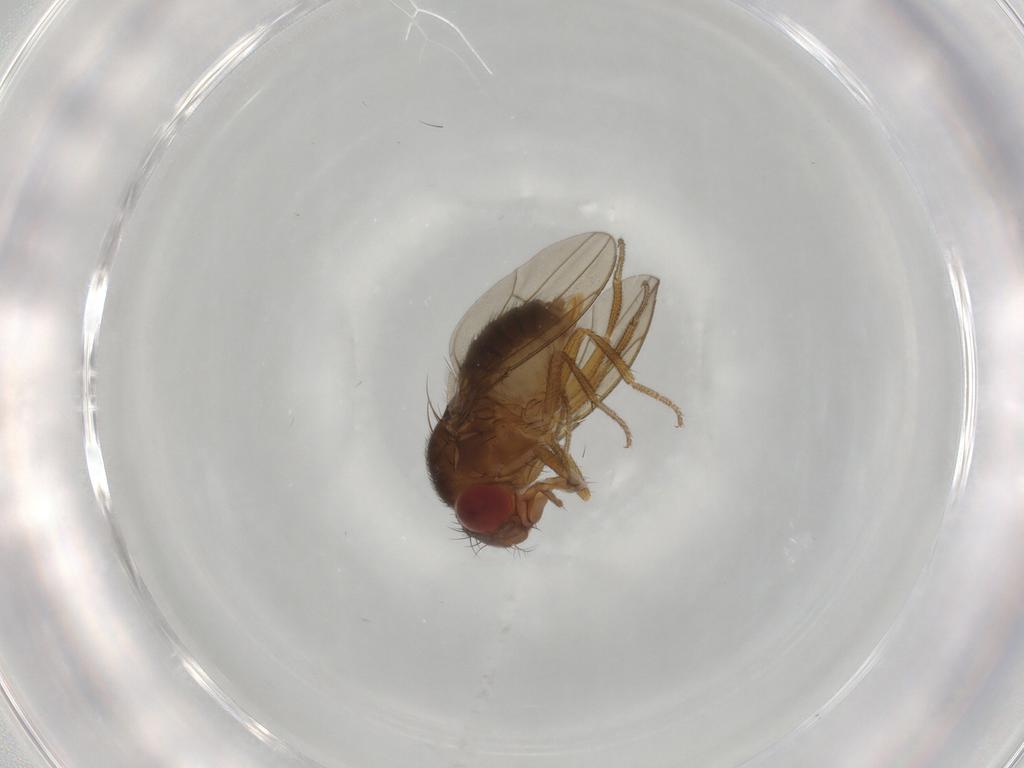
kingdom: Animalia
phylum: Arthropoda
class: Insecta
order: Diptera
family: Drosophilidae
